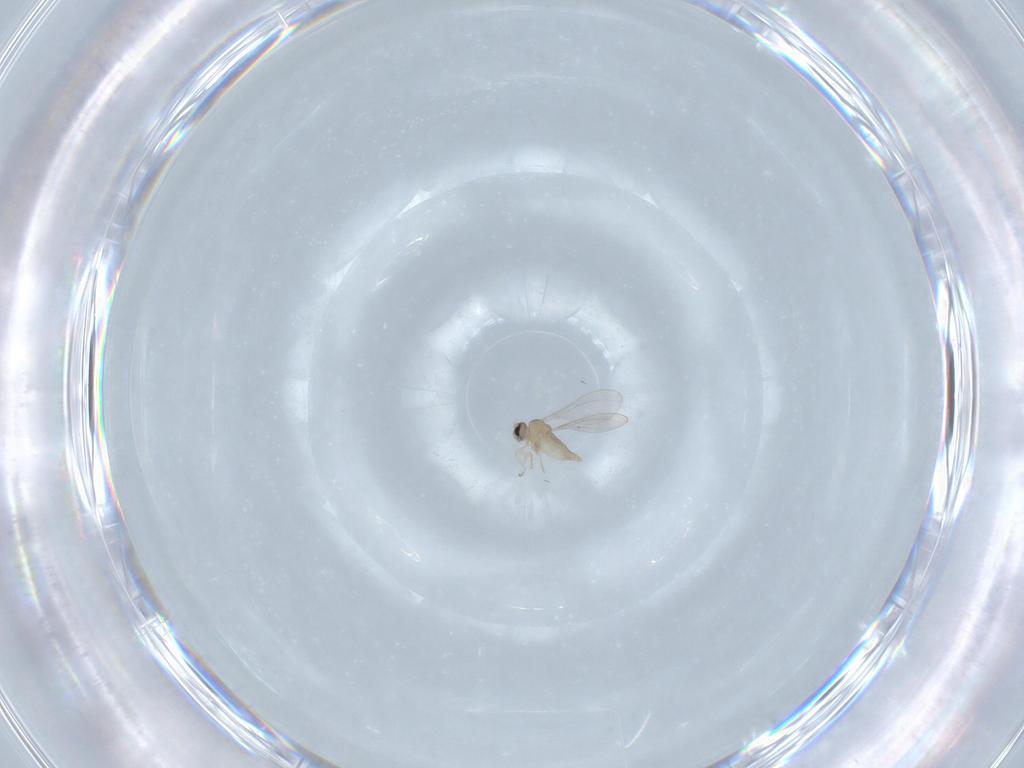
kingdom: Animalia
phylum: Arthropoda
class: Insecta
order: Diptera
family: Cecidomyiidae
